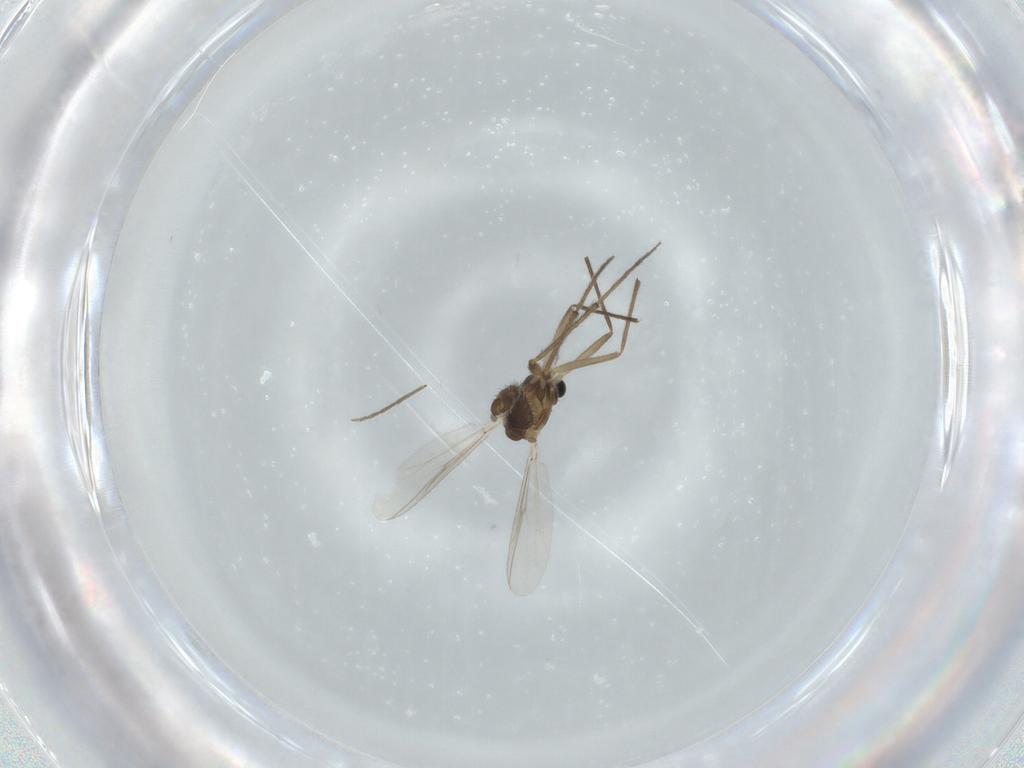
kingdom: Animalia
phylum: Arthropoda
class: Insecta
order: Diptera
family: Chironomidae
